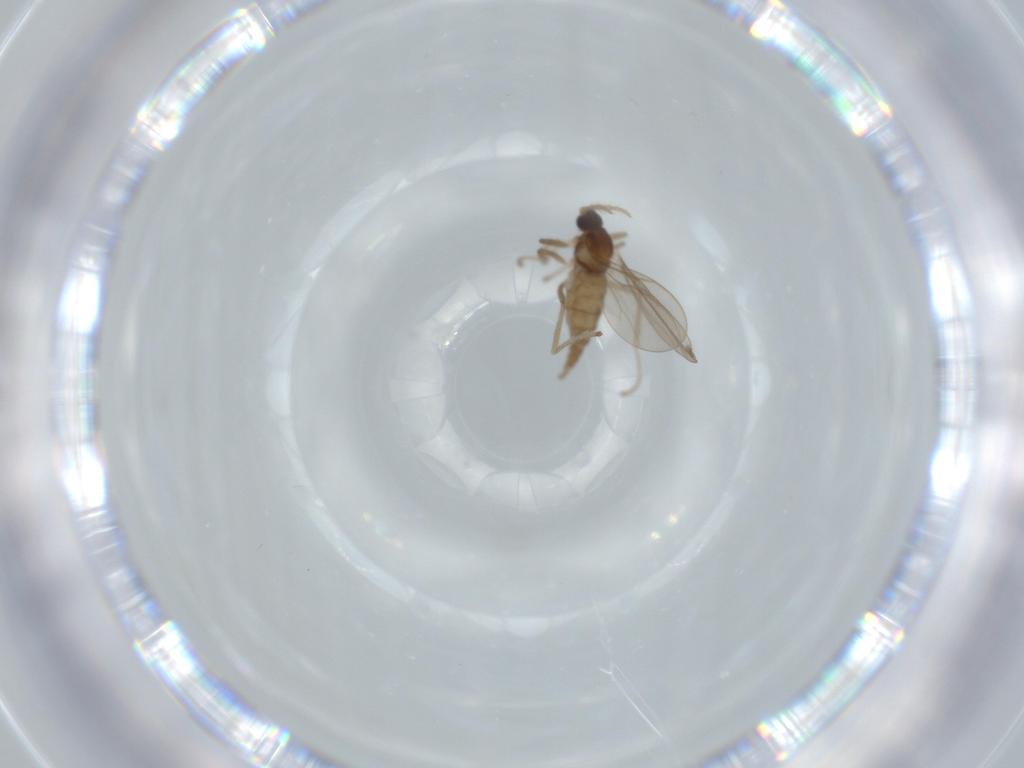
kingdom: Animalia
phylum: Arthropoda
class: Insecta
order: Diptera
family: Cecidomyiidae
